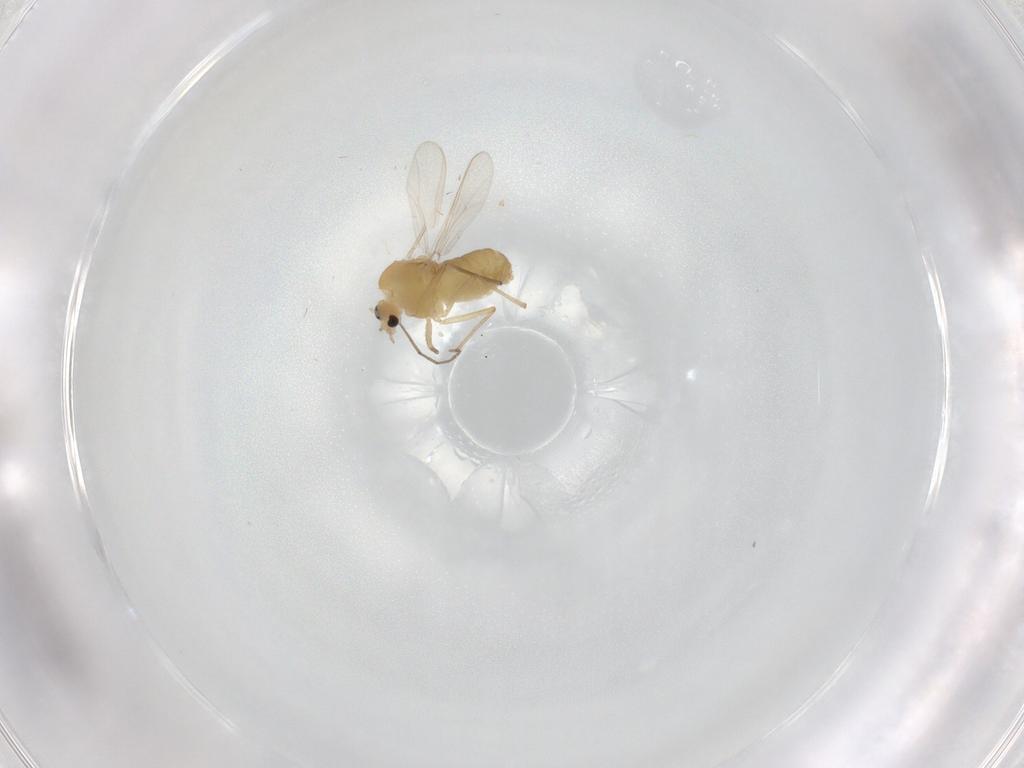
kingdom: Animalia
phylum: Arthropoda
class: Insecta
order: Diptera
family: Chironomidae
